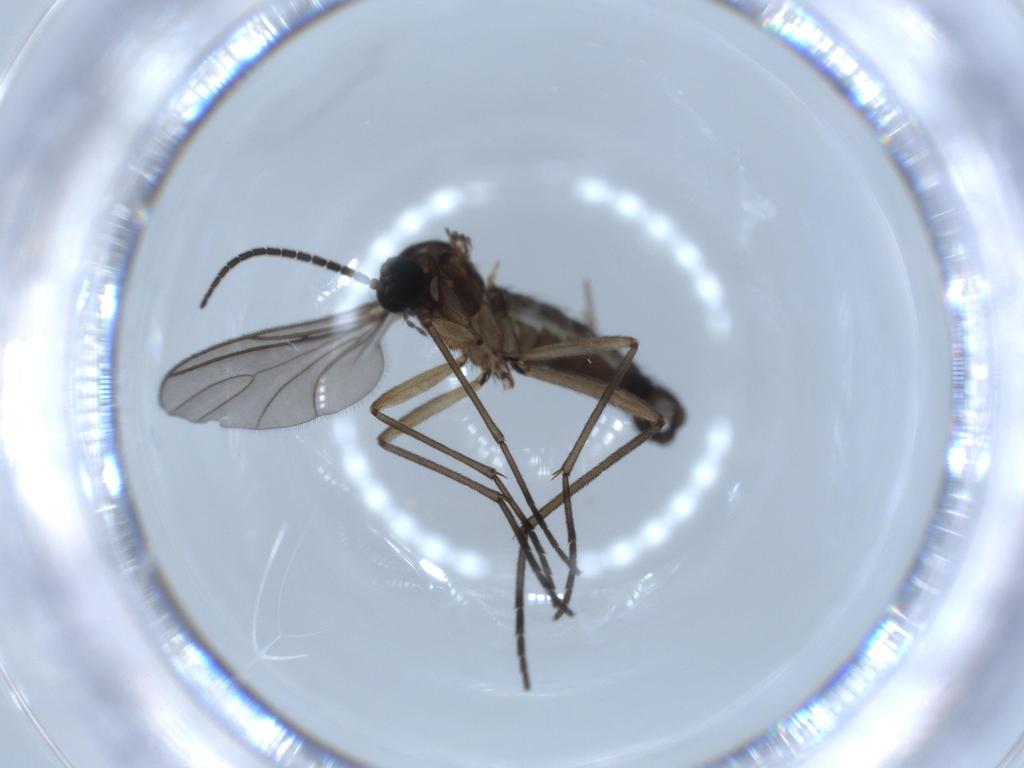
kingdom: Animalia
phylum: Arthropoda
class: Insecta
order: Diptera
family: Sciaridae
